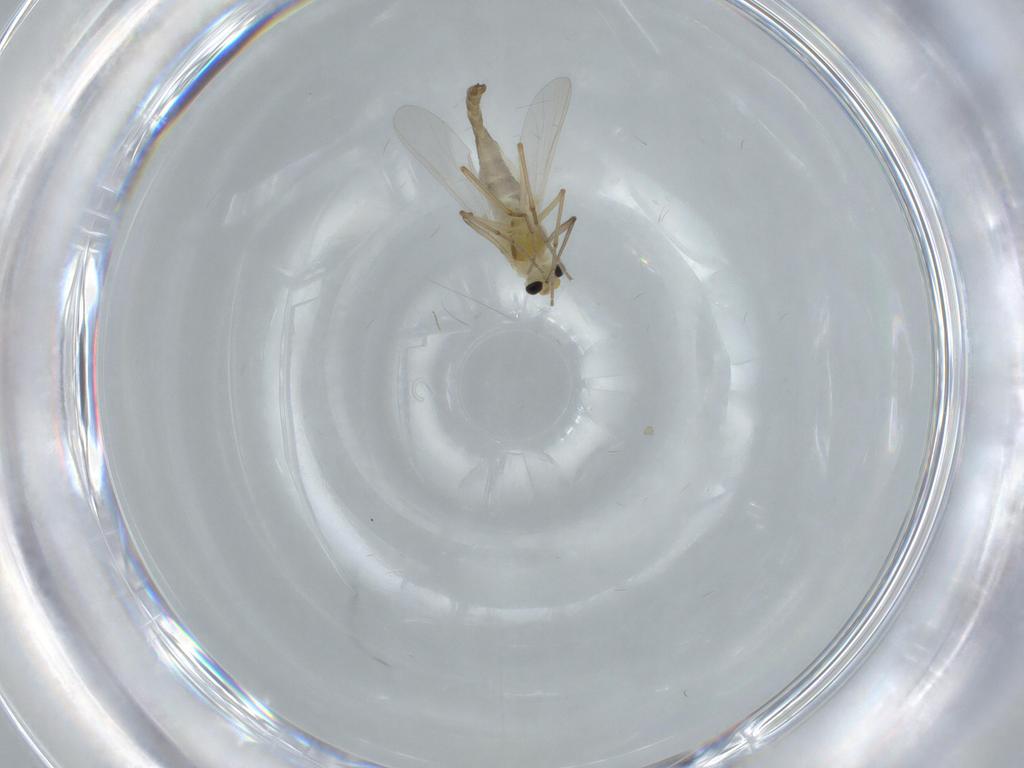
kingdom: Animalia
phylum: Arthropoda
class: Insecta
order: Diptera
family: Chironomidae
